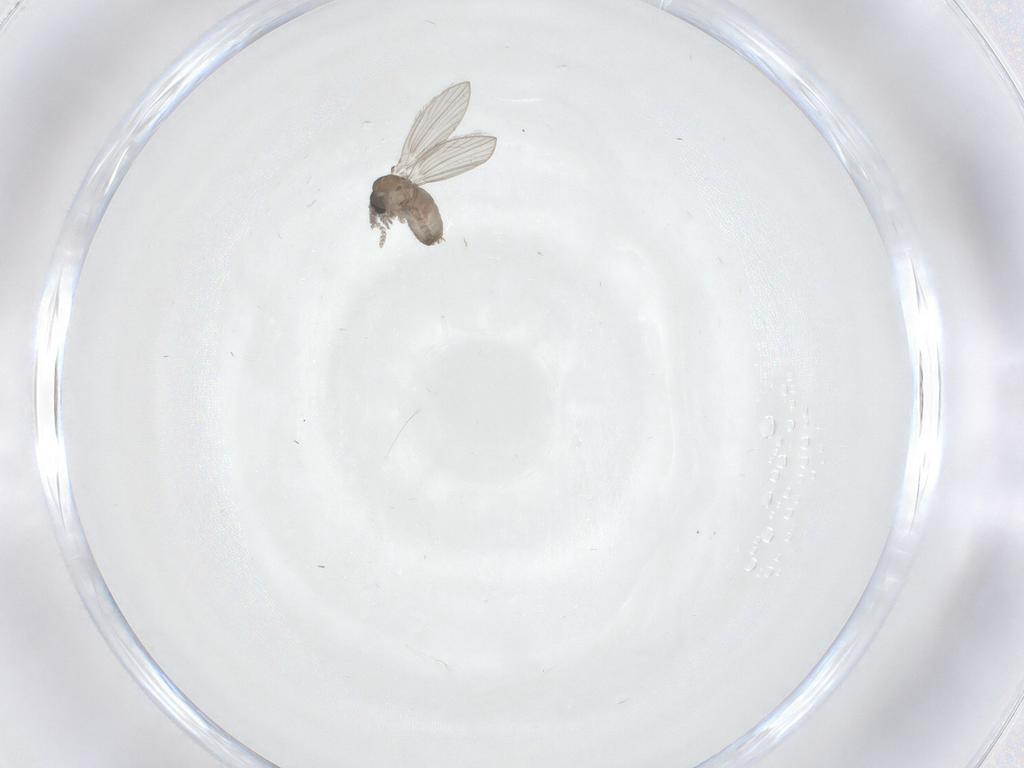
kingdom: Animalia
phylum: Arthropoda
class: Insecta
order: Diptera
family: Psychodidae
